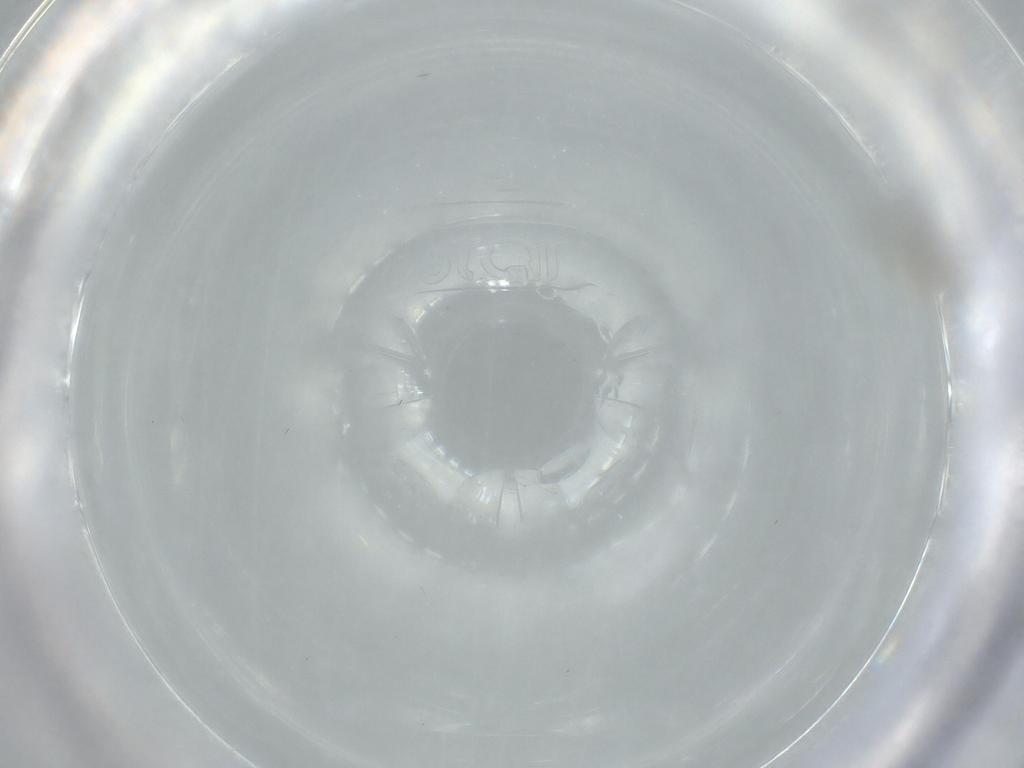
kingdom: Animalia
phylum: Arthropoda
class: Insecta
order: Diptera
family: Cecidomyiidae
